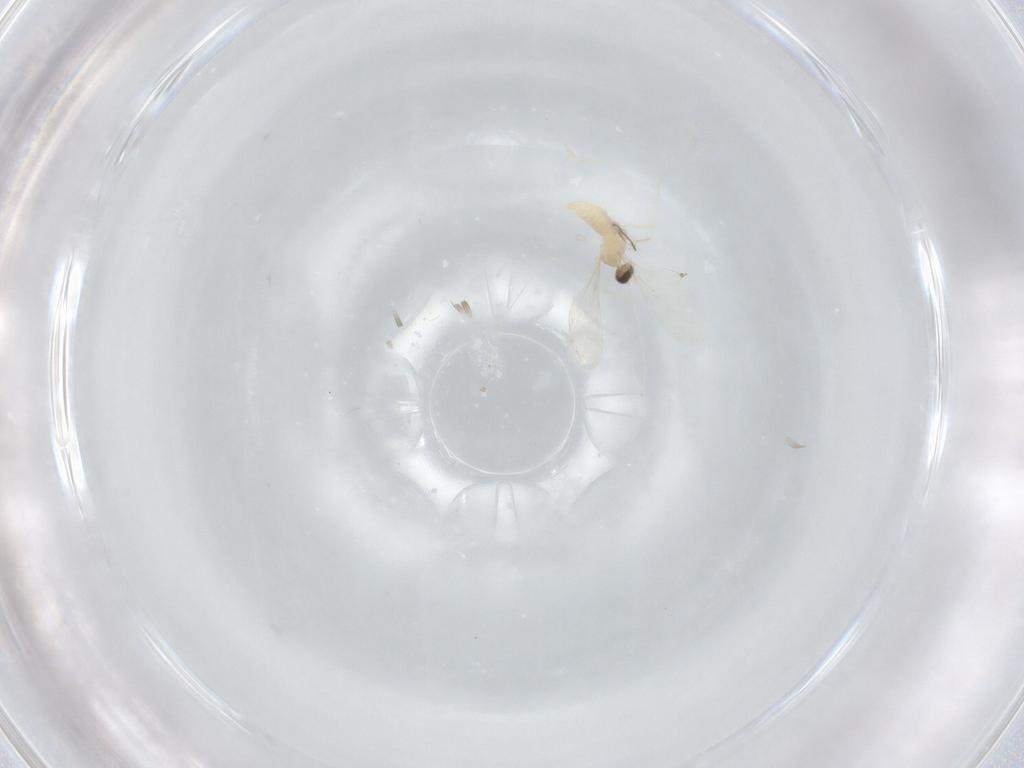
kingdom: Animalia
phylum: Arthropoda
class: Insecta
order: Diptera
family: Cecidomyiidae
